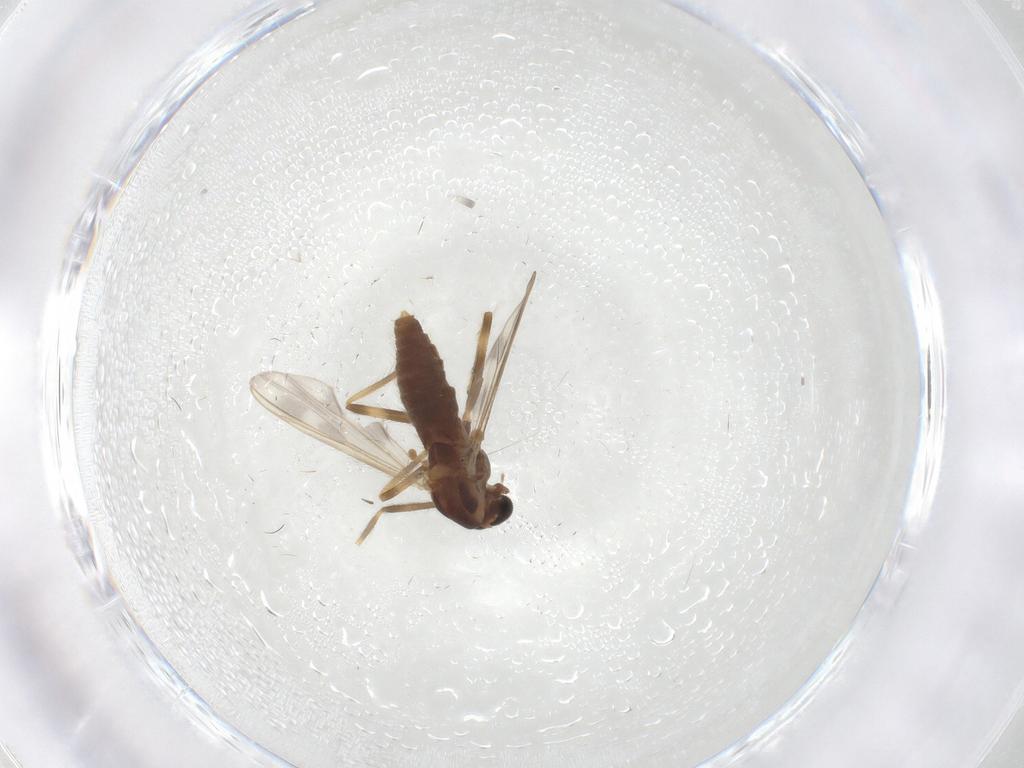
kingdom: Animalia
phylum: Arthropoda
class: Insecta
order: Diptera
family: Chironomidae
